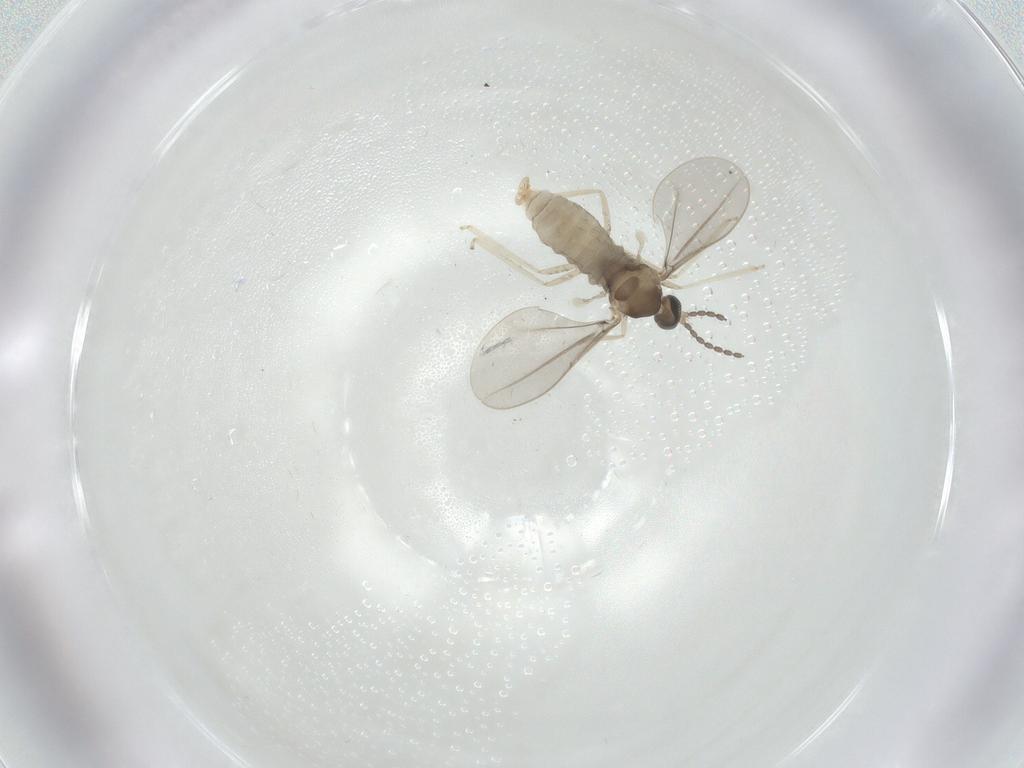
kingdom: Animalia
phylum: Arthropoda
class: Insecta
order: Diptera
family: Cecidomyiidae
